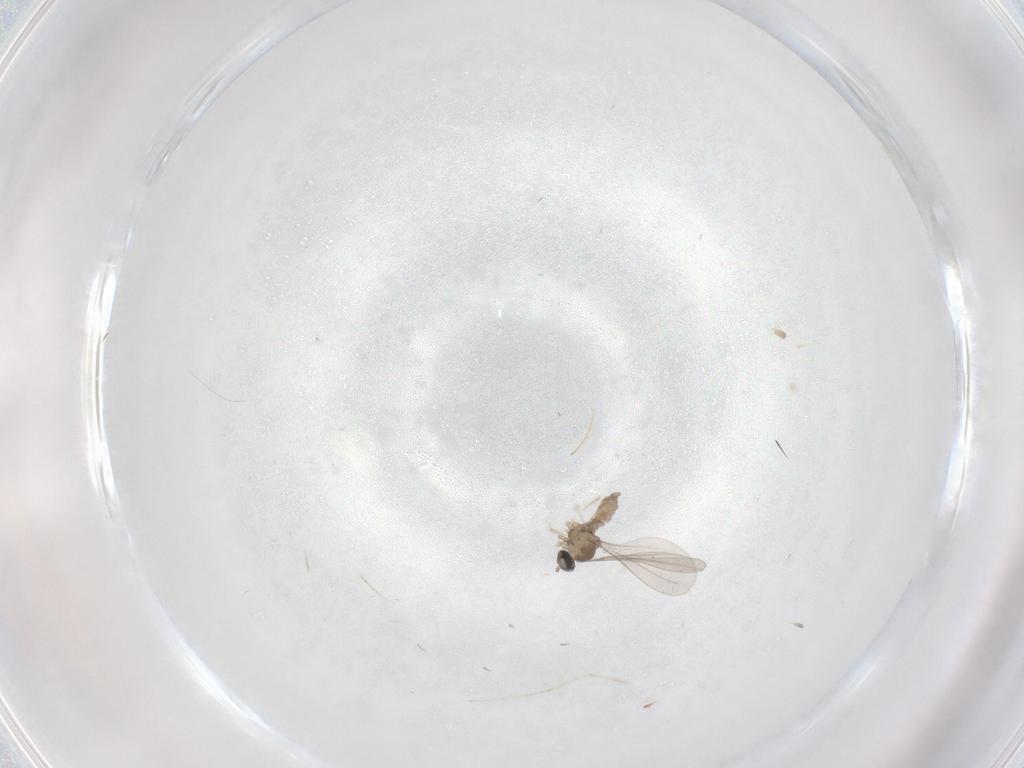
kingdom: Animalia
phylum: Arthropoda
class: Insecta
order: Diptera
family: Cecidomyiidae
